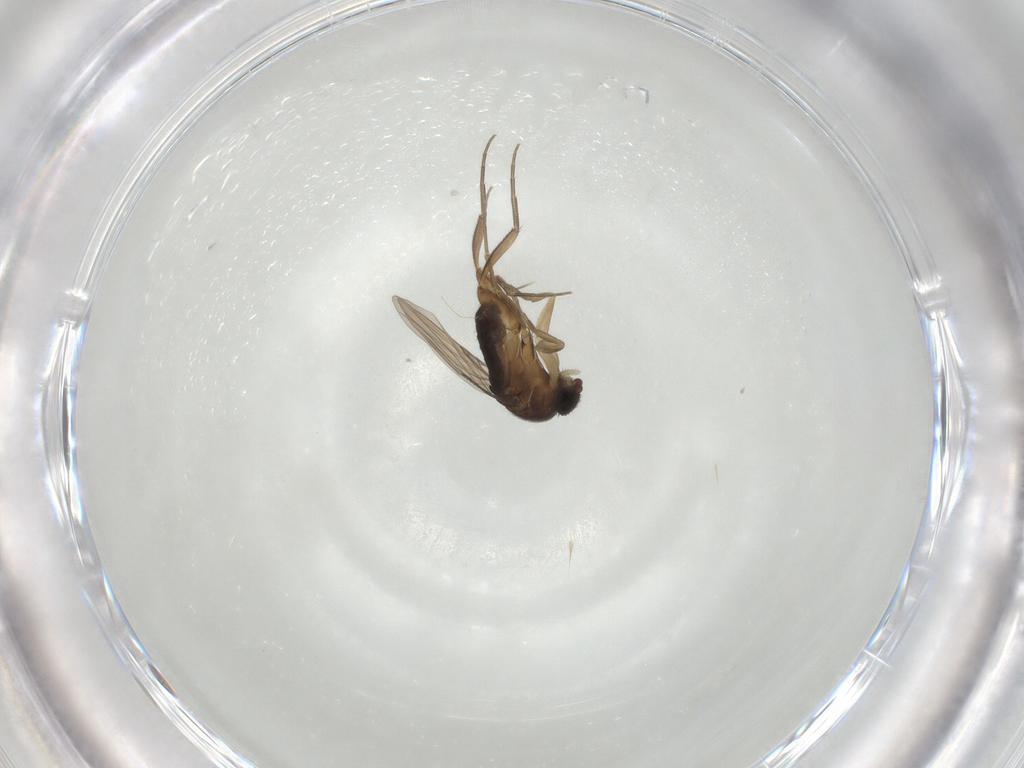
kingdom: Animalia
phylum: Arthropoda
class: Insecta
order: Diptera
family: Phoridae
